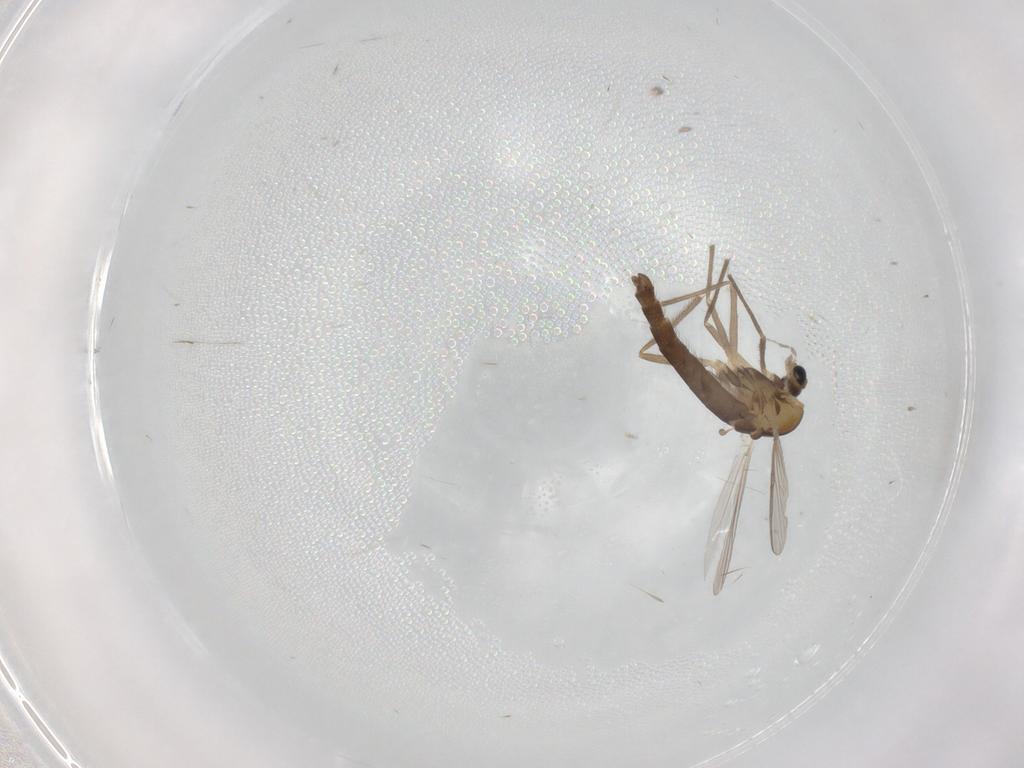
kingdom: Animalia
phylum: Arthropoda
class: Insecta
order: Diptera
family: Chironomidae
